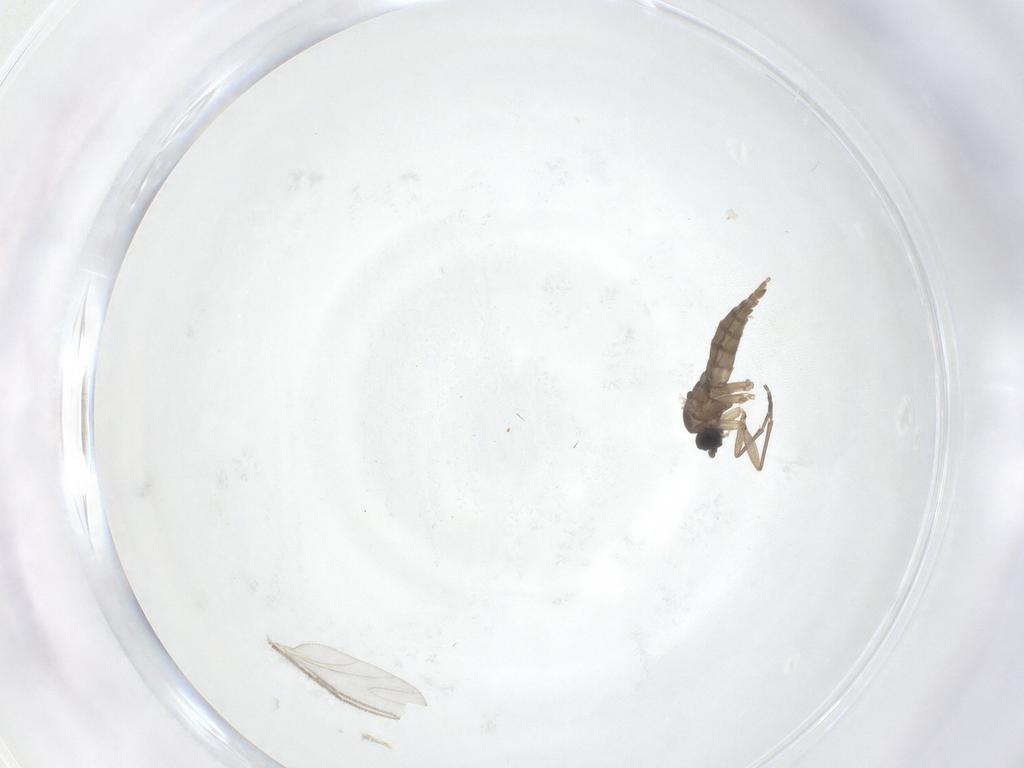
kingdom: Animalia
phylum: Arthropoda
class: Insecta
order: Diptera
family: Sciaridae
